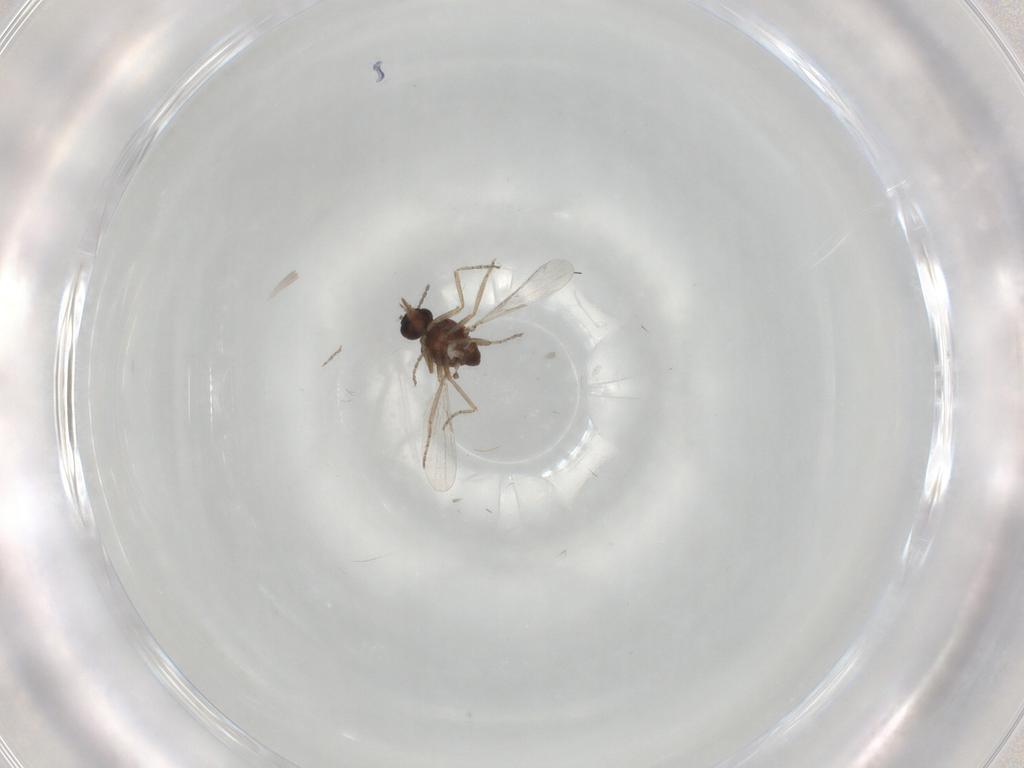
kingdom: Animalia
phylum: Arthropoda
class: Insecta
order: Diptera
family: Ceratopogonidae
